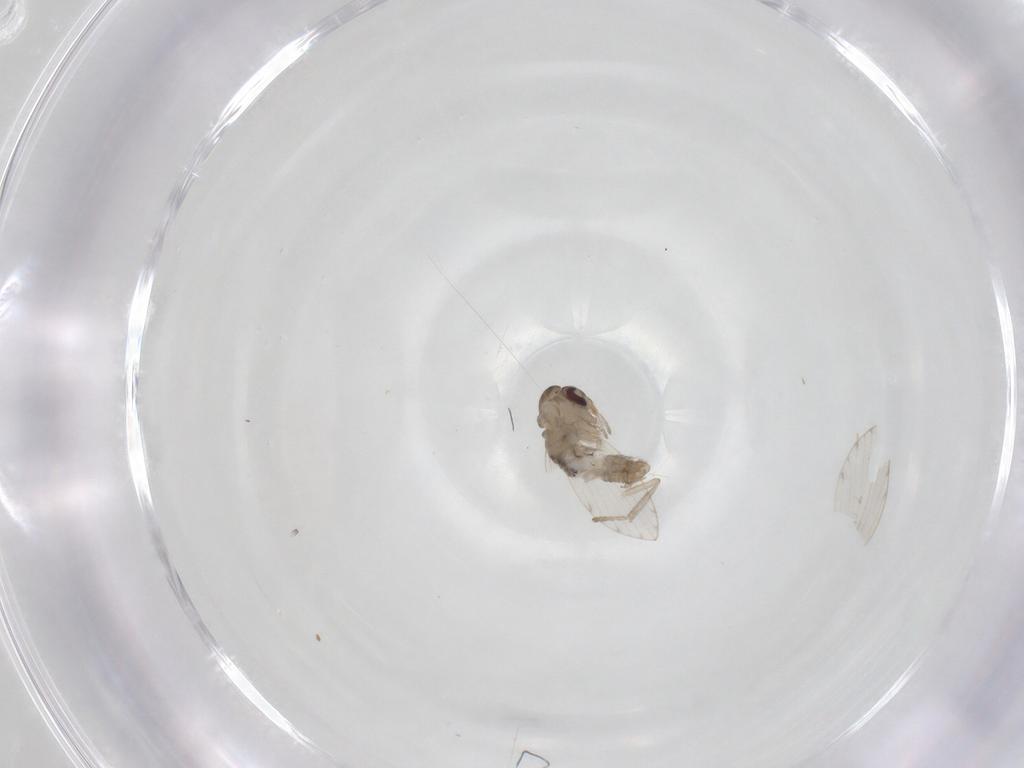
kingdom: Animalia
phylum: Arthropoda
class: Insecta
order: Diptera
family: Psychodidae
